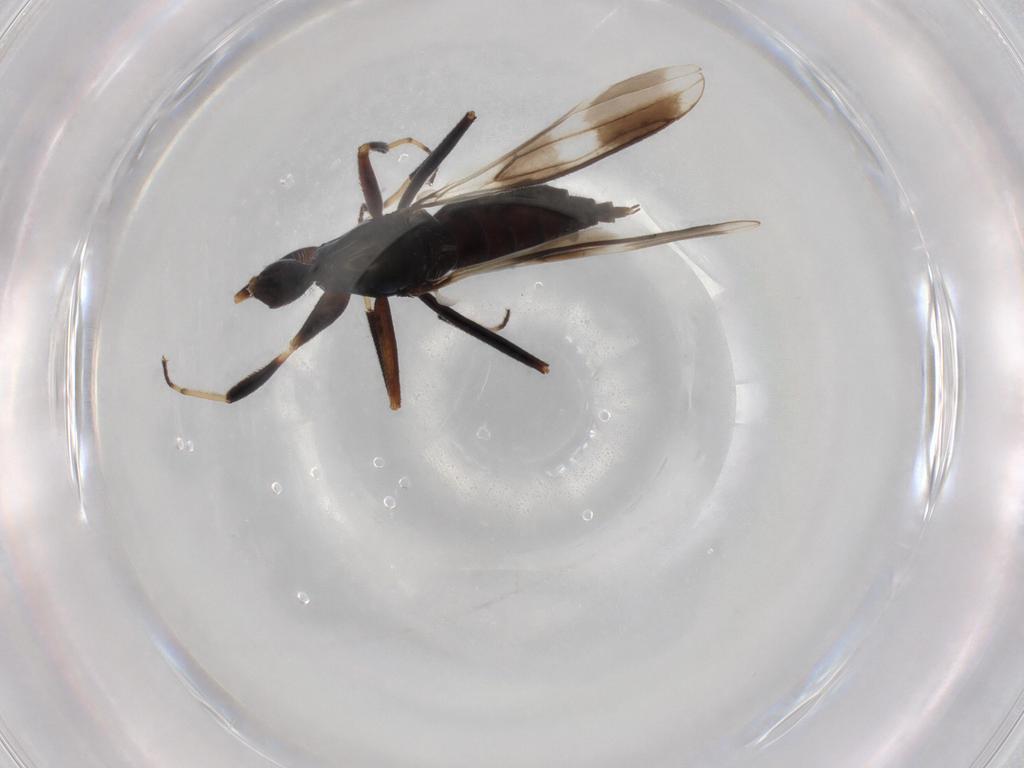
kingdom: Animalia
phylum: Arthropoda
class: Insecta
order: Diptera
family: Hybotidae
